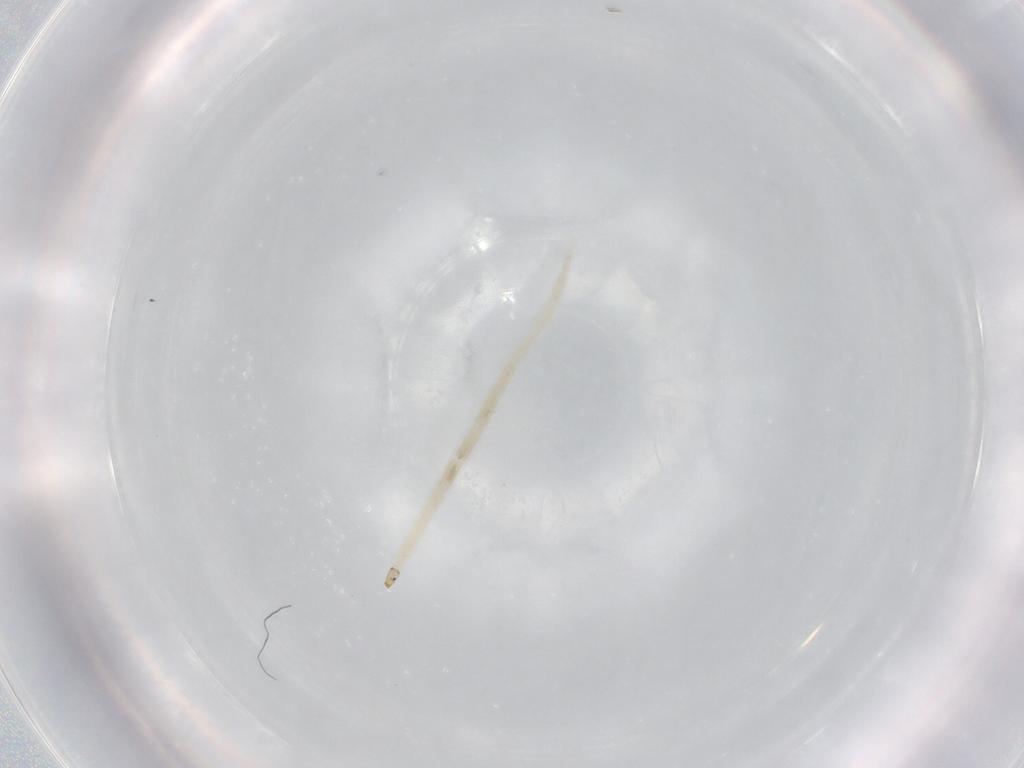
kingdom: Animalia
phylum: Arthropoda
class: Insecta
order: Diptera
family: Ceratopogonidae
